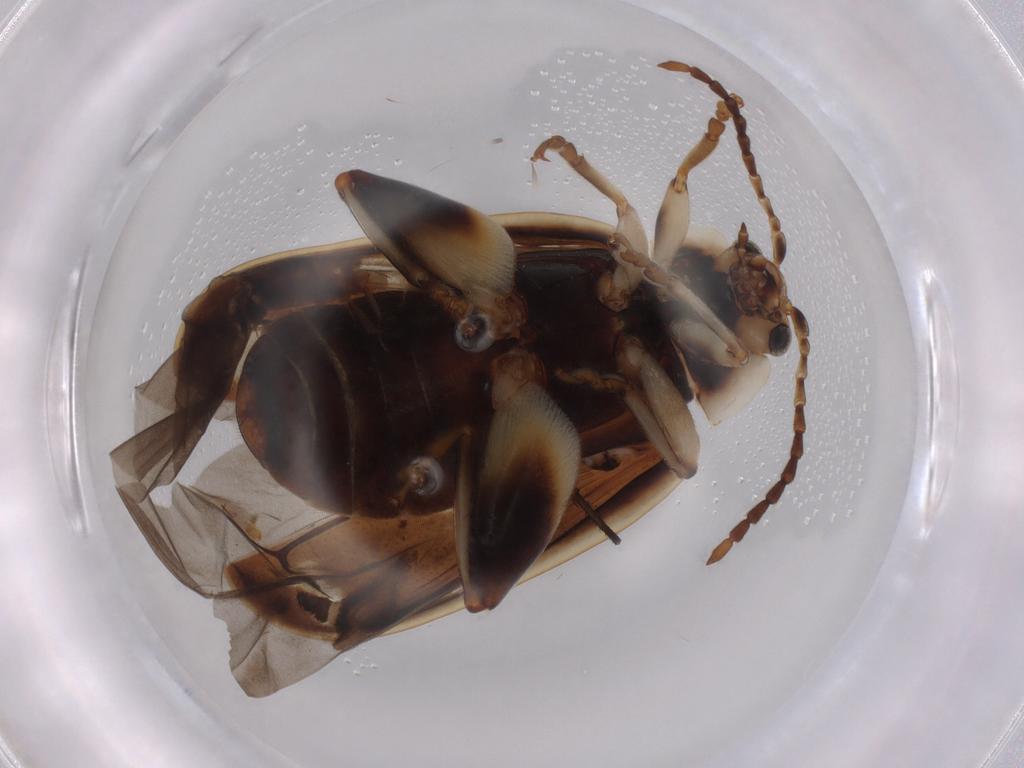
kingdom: Animalia
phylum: Arthropoda
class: Insecta
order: Coleoptera
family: Chrysomelidae
